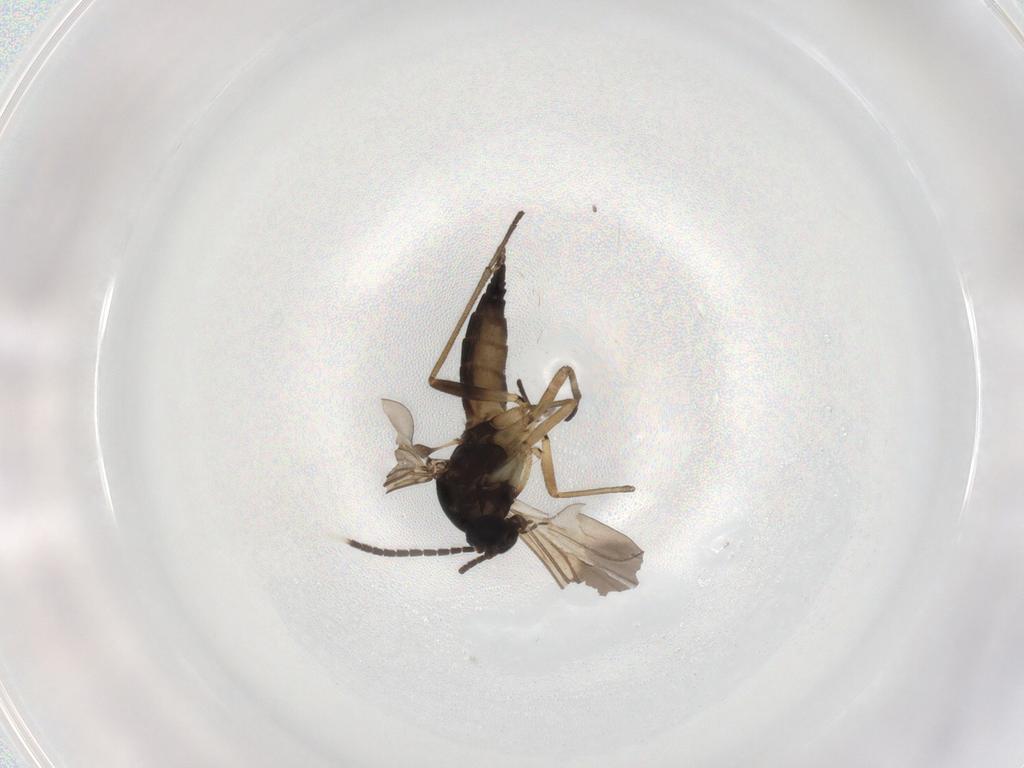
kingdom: Animalia
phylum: Arthropoda
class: Insecta
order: Diptera
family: Sciaridae
